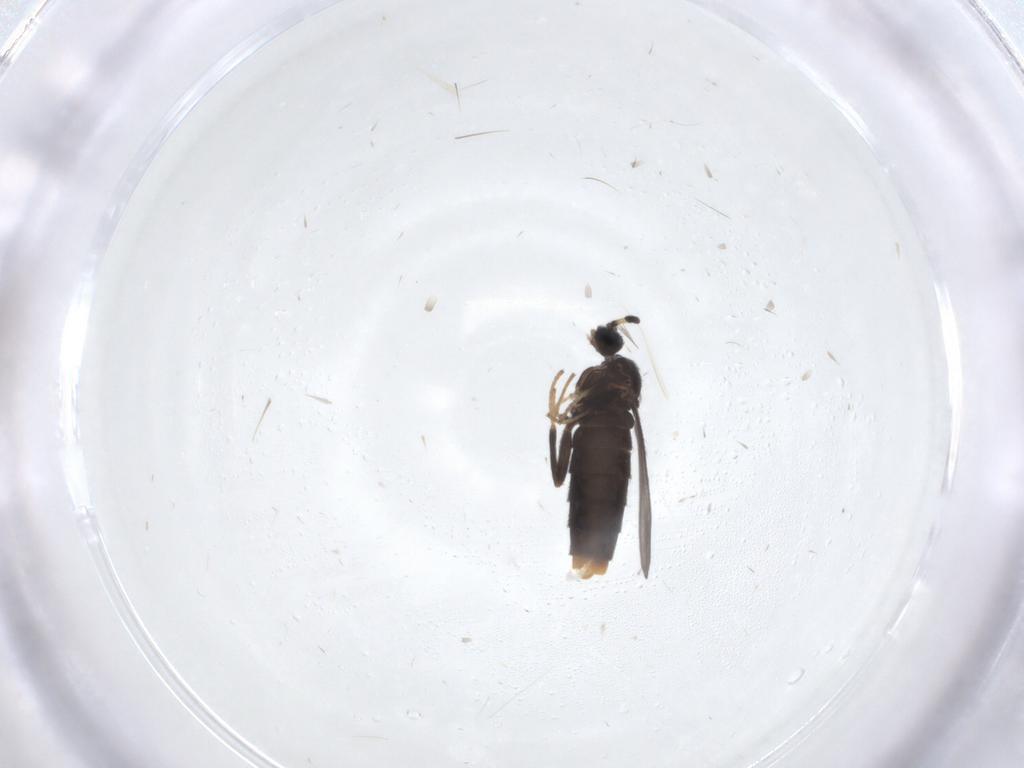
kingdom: Animalia
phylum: Arthropoda
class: Insecta
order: Diptera
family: Scatopsidae
